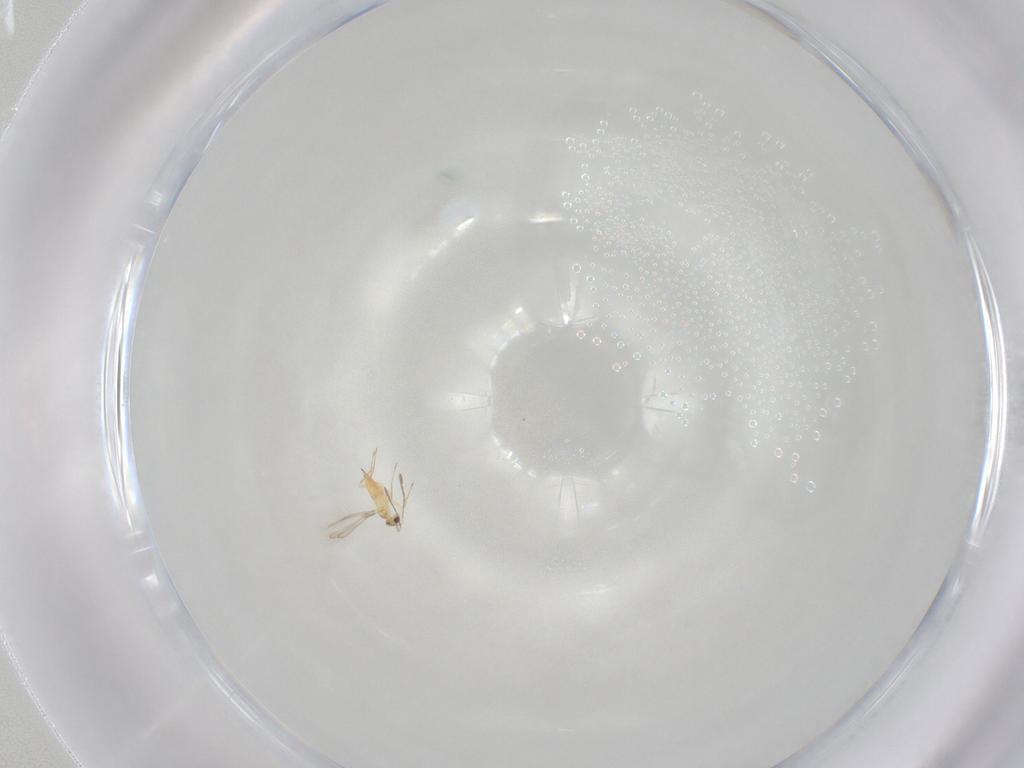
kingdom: Animalia
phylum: Arthropoda
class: Insecta
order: Hymenoptera
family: Mymaridae
